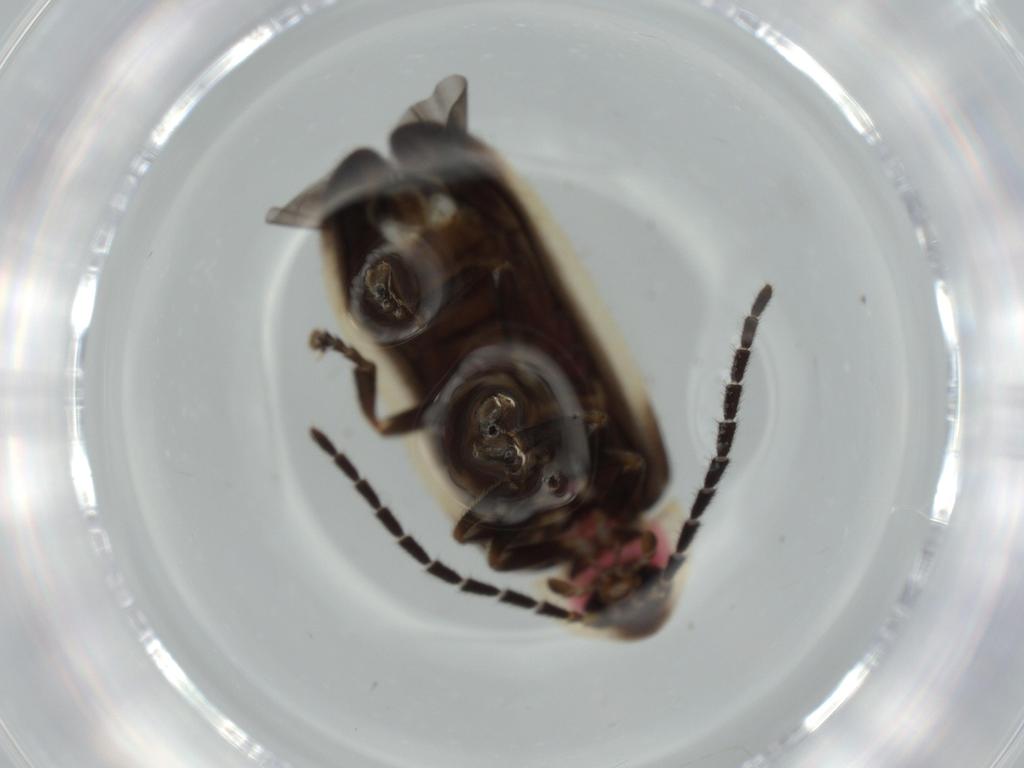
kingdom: Animalia
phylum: Arthropoda
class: Insecta
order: Coleoptera
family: Lampyridae
